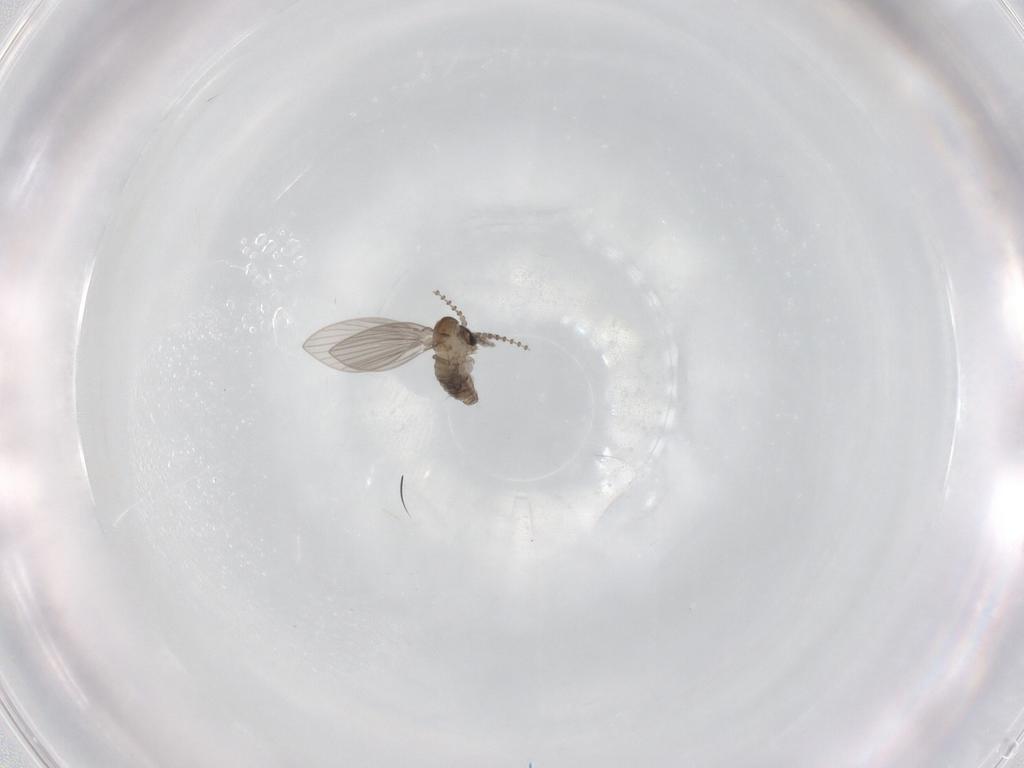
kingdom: Animalia
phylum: Arthropoda
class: Insecta
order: Diptera
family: Psychodidae
